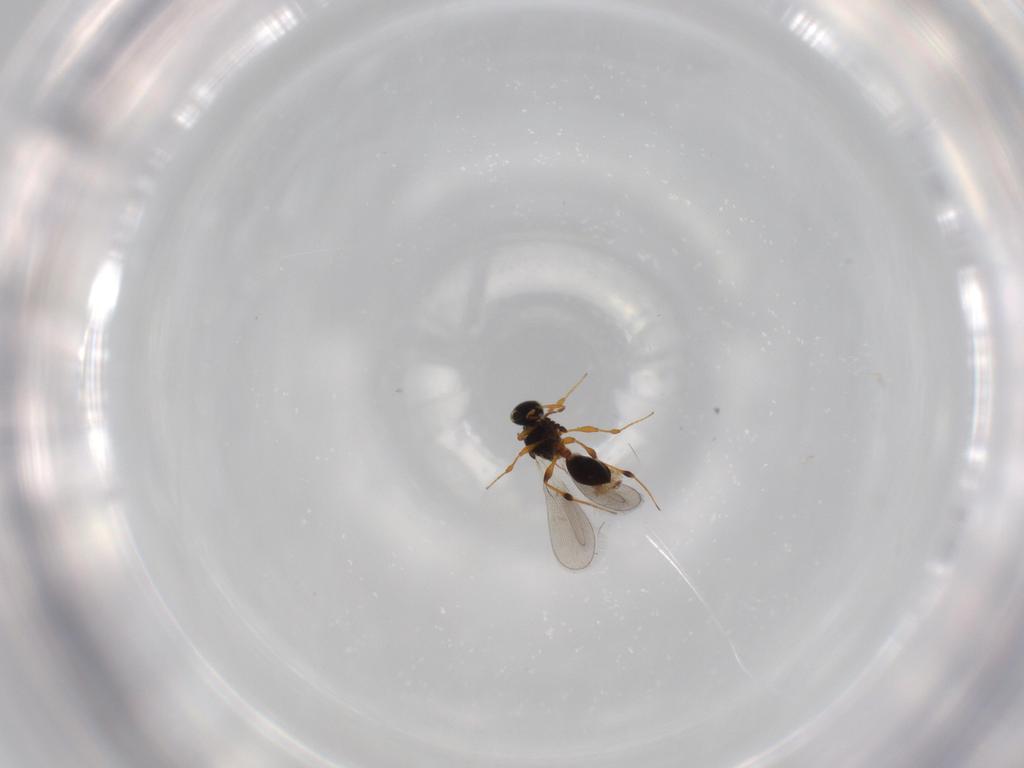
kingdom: Animalia
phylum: Arthropoda
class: Insecta
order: Hymenoptera
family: Platygastridae
